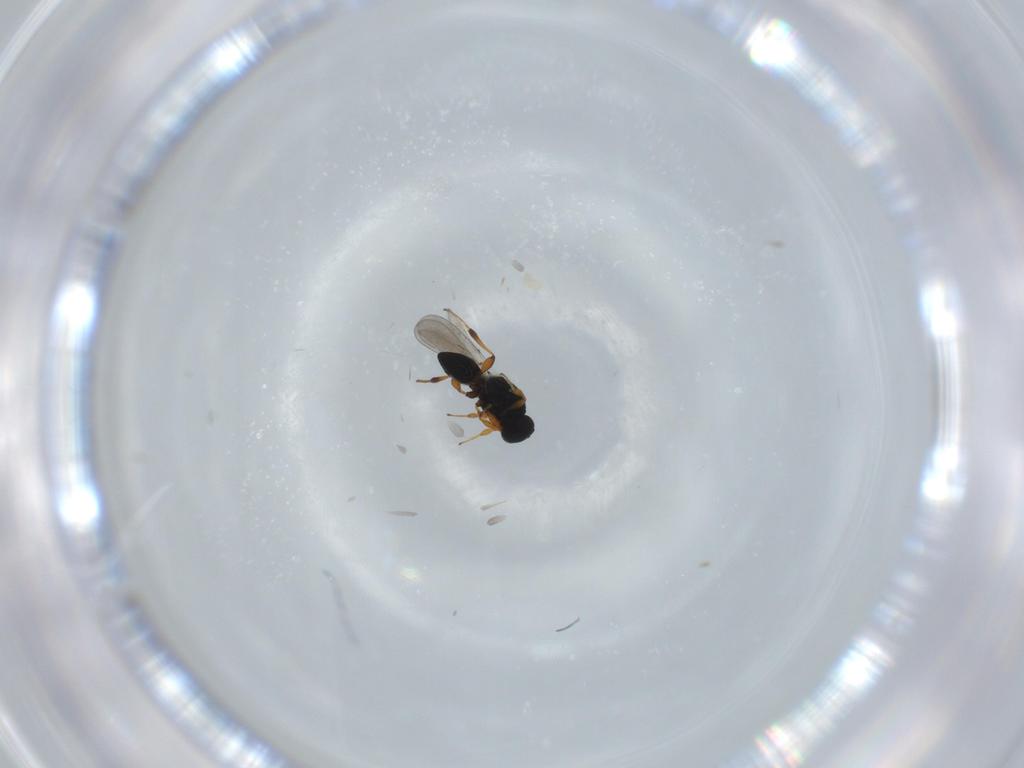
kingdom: Animalia
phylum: Arthropoda
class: Insecta
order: Hymenoptera
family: Platygastridae
